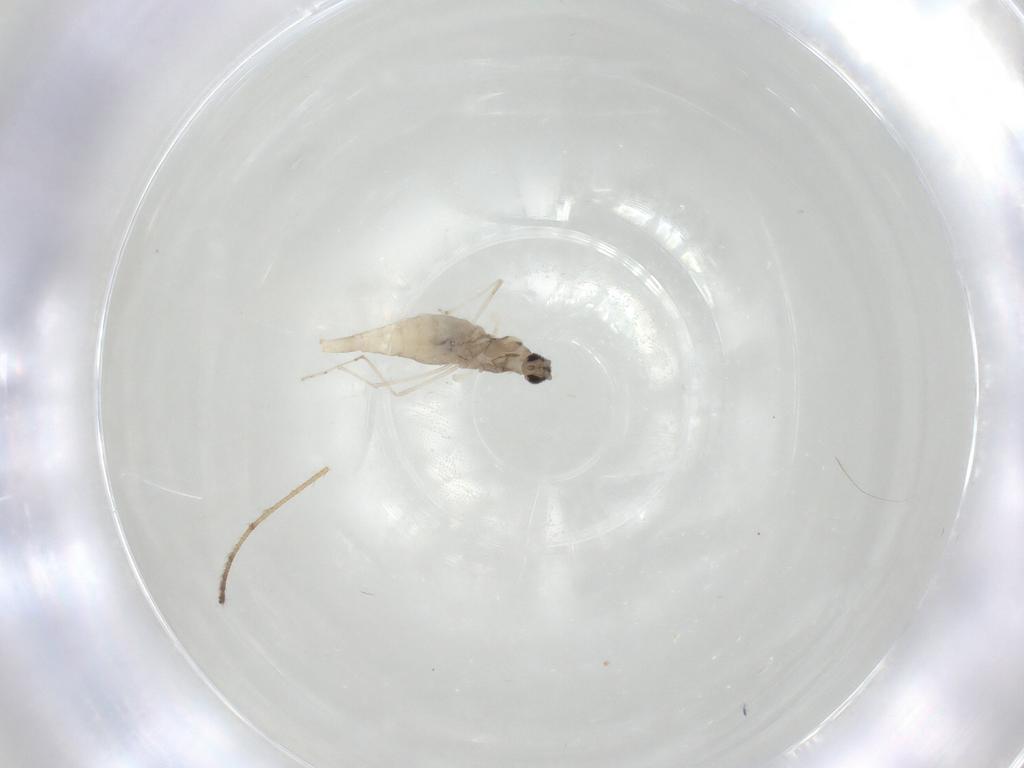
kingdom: Animalia
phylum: Arthropoda
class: Insecta
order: Diptera
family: Cecidomyiidae
